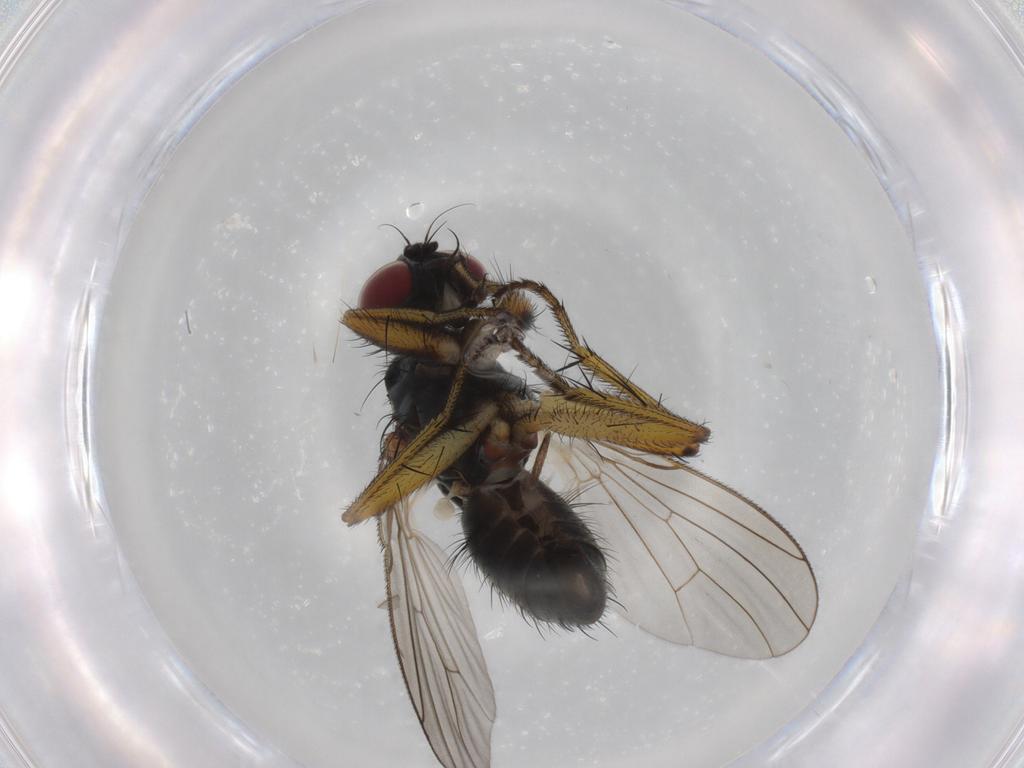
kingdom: Animalia
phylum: Arthropoda
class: Insecta
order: Diptera
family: Muscidae
